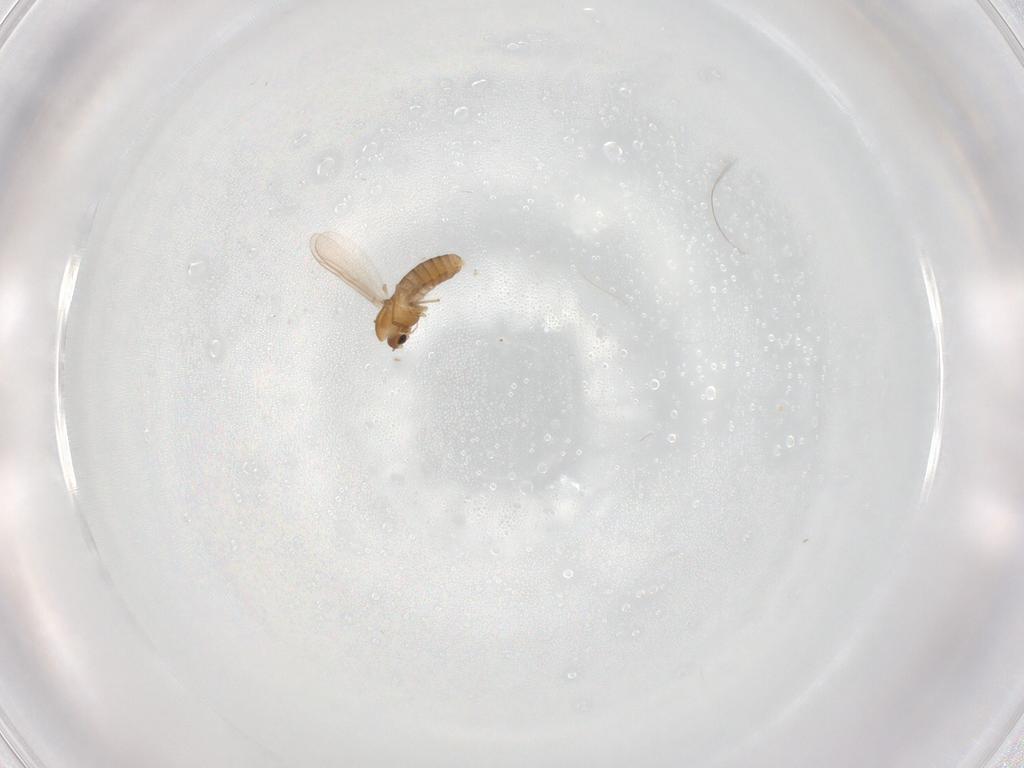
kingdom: Animalia
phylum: Arthropoda
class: Insecta
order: Diptera
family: Chironomidae
